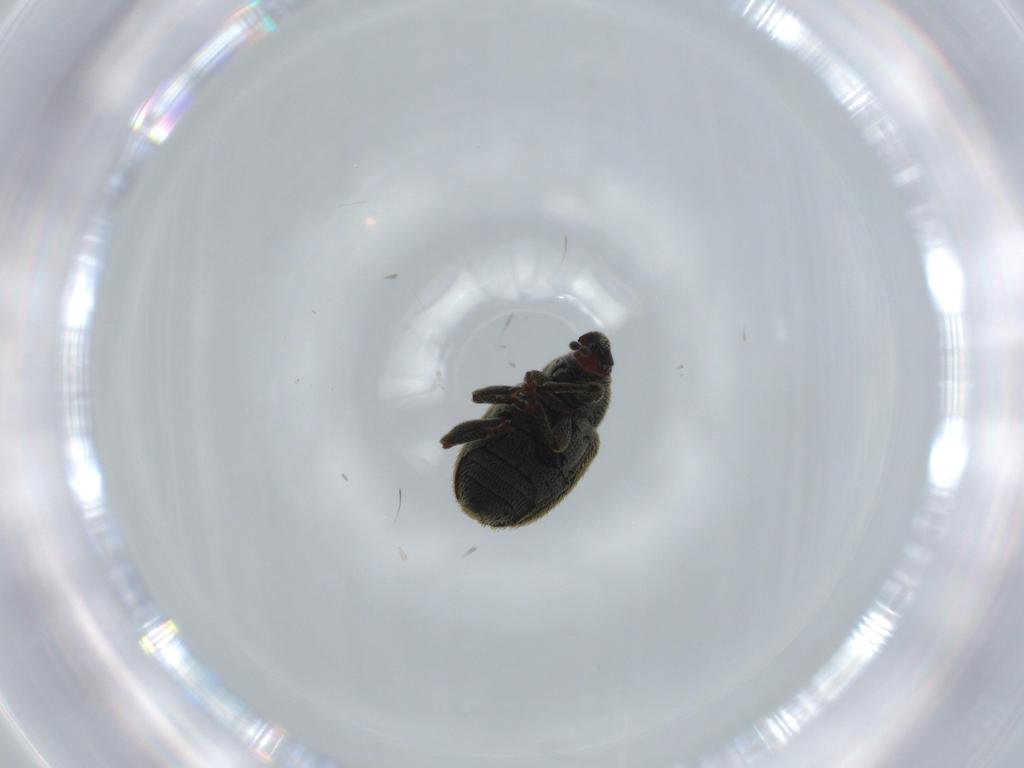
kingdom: Animalia
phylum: Arthropoda
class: Insecta
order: Coleoptera
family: Curculionidae
